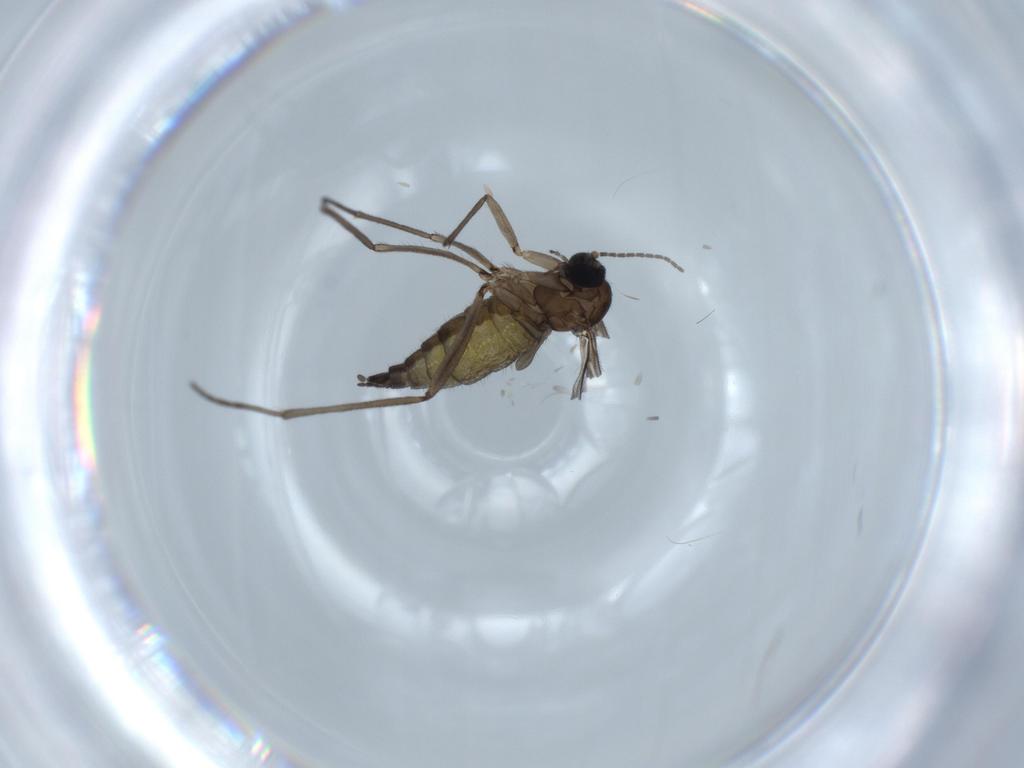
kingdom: Animalia
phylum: Arthropoda
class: Insecta
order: Diptera
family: Sciaridae
